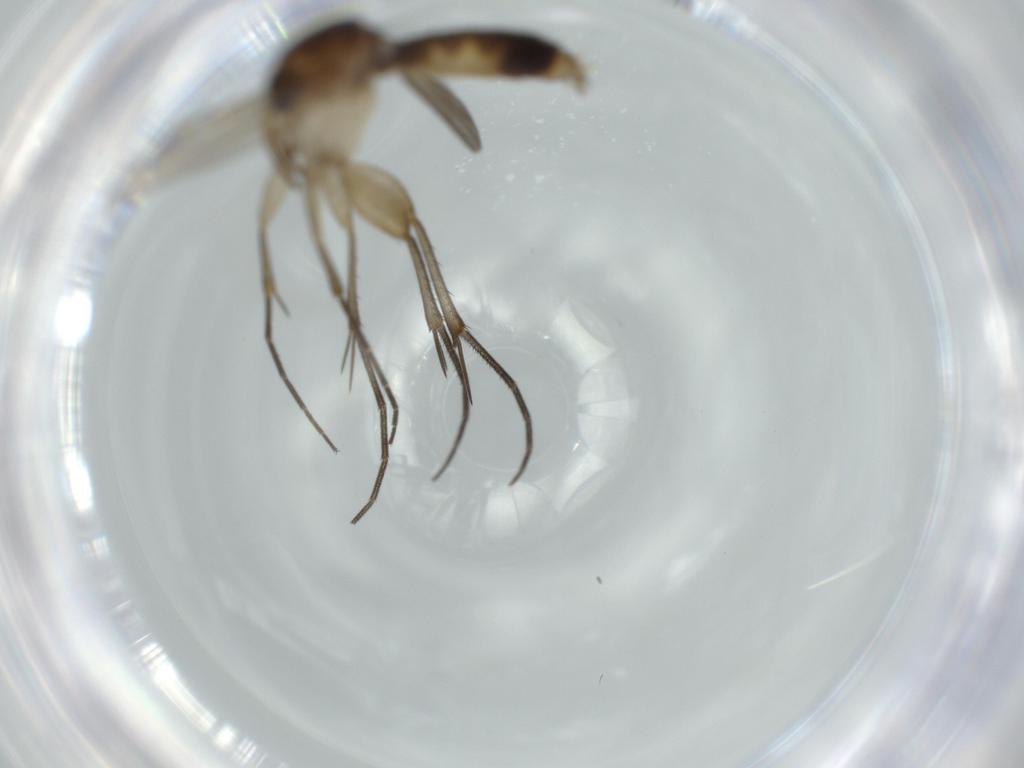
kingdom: Animalia
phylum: Arthropoda
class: Insecta
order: Diptera
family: Mycetophilidae
